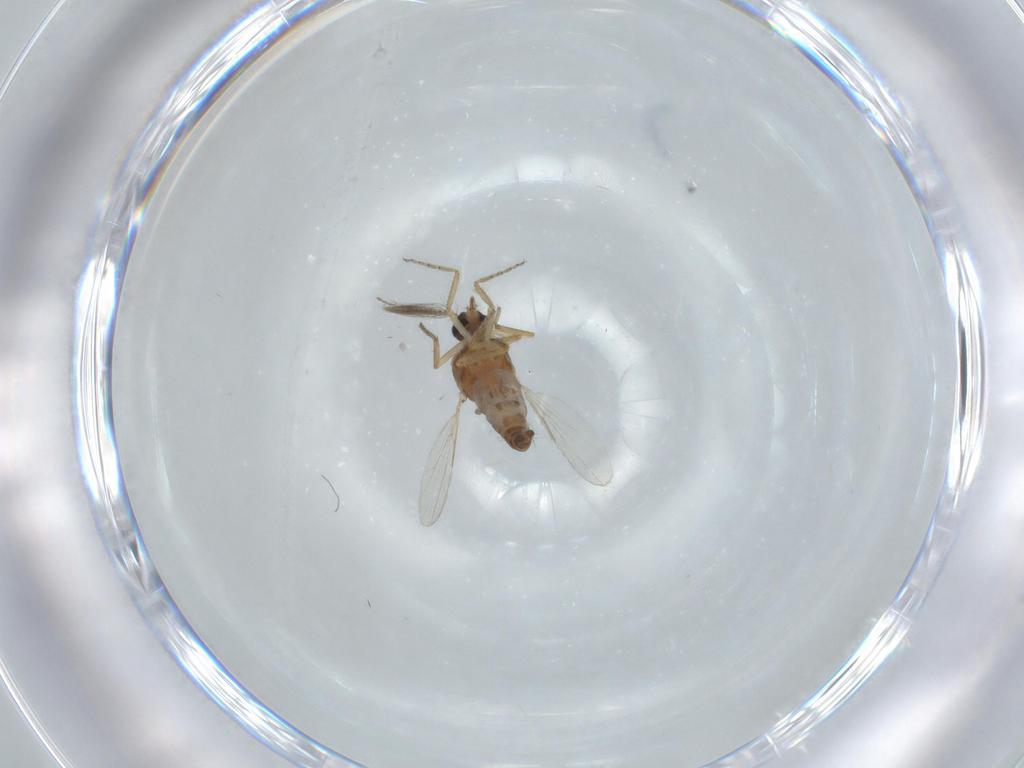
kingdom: Animalia
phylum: Arthropoda
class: Insecta
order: Diptera
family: Ceratopogonidae
